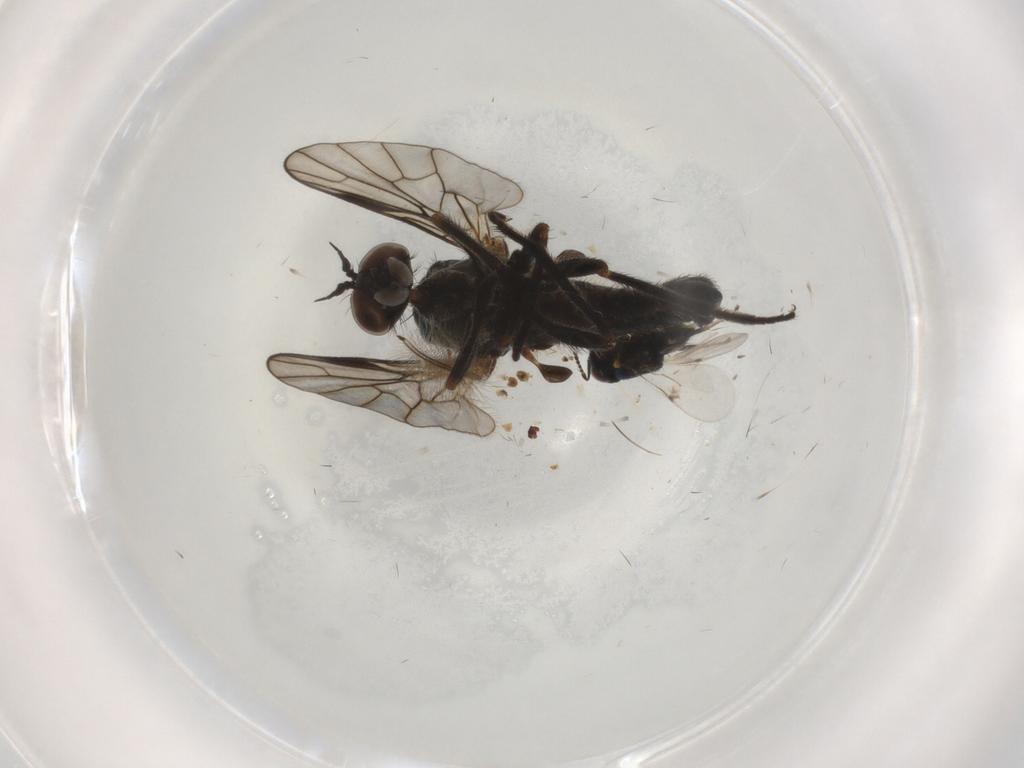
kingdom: Animalia
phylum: Arthropoda
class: Insecta
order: Diptera
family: Empididae
